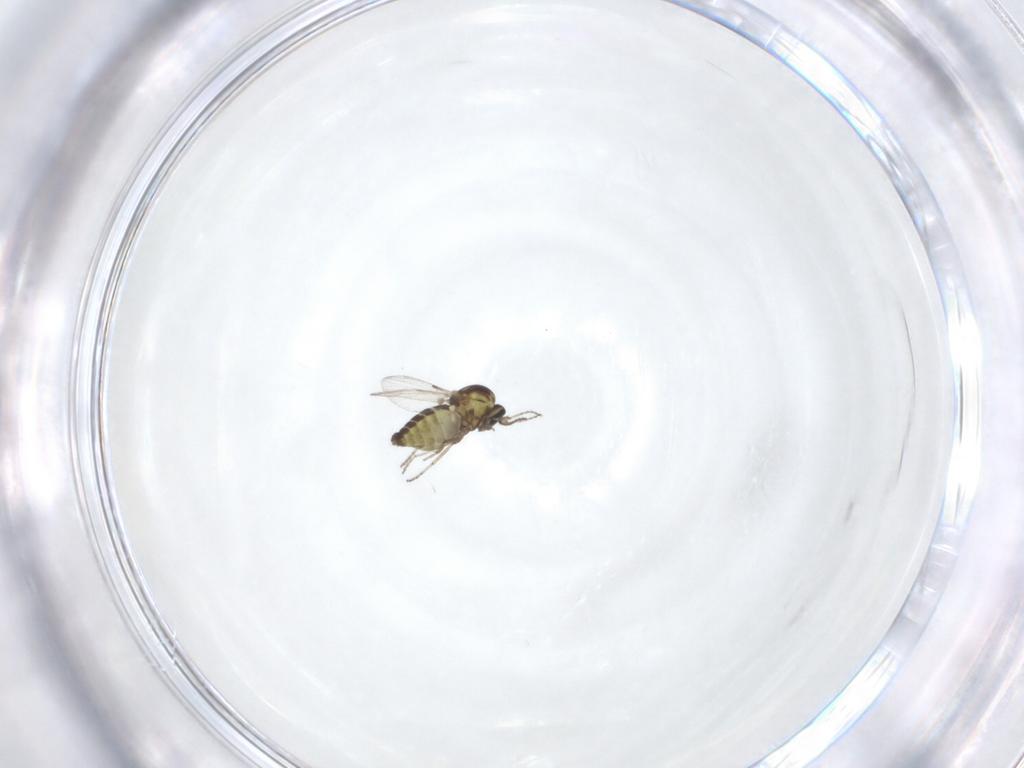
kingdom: Animalia
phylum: Arthropoda
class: Insecta
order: Diptera
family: Ceratopogonidae
